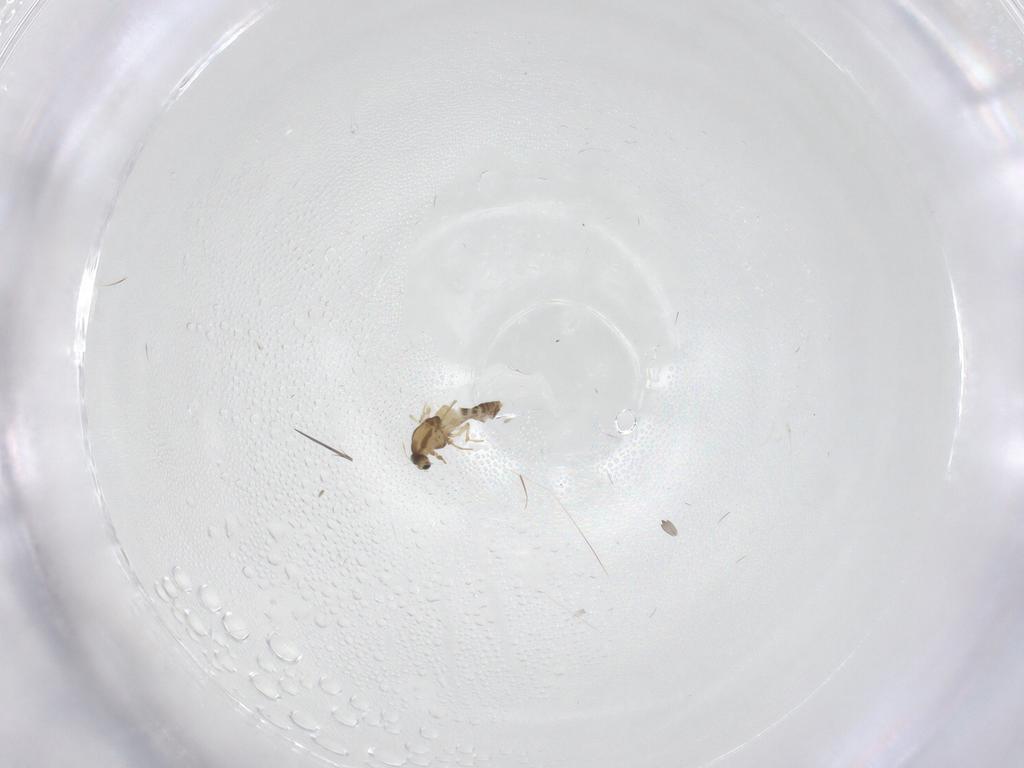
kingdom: Animalia
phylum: Arthropoda
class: Insecta
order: Diptera
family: Chironomidae
